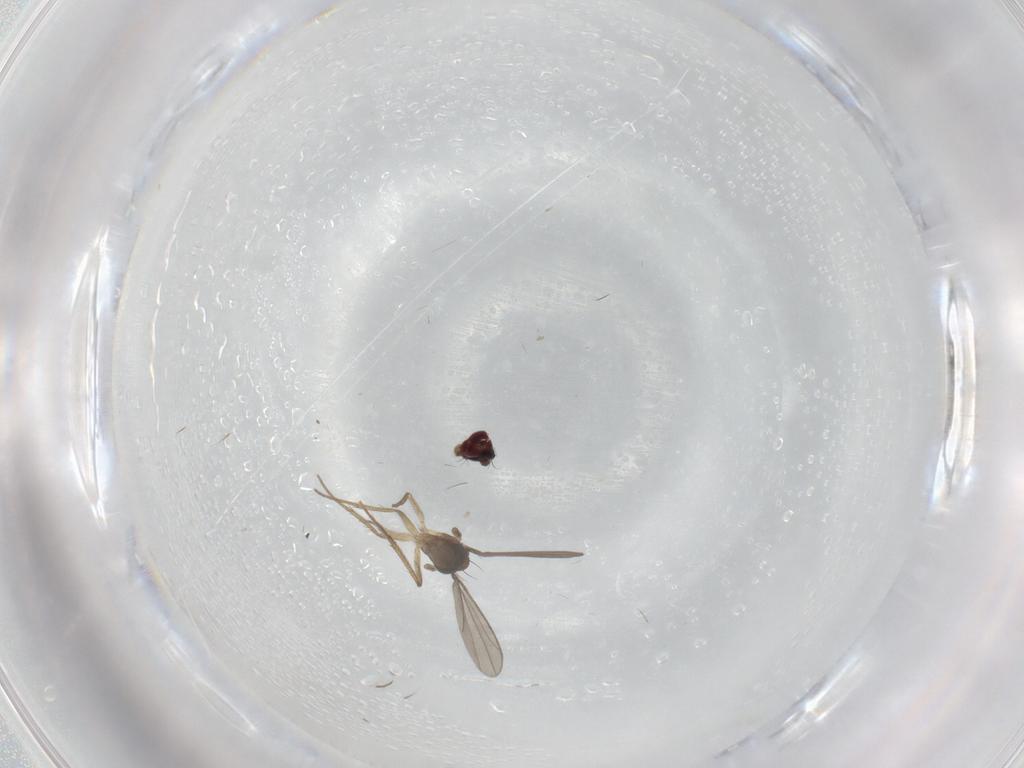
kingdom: Animalia
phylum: Arthropoda
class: Insecta
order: Diptera
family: Dolichopodidae
